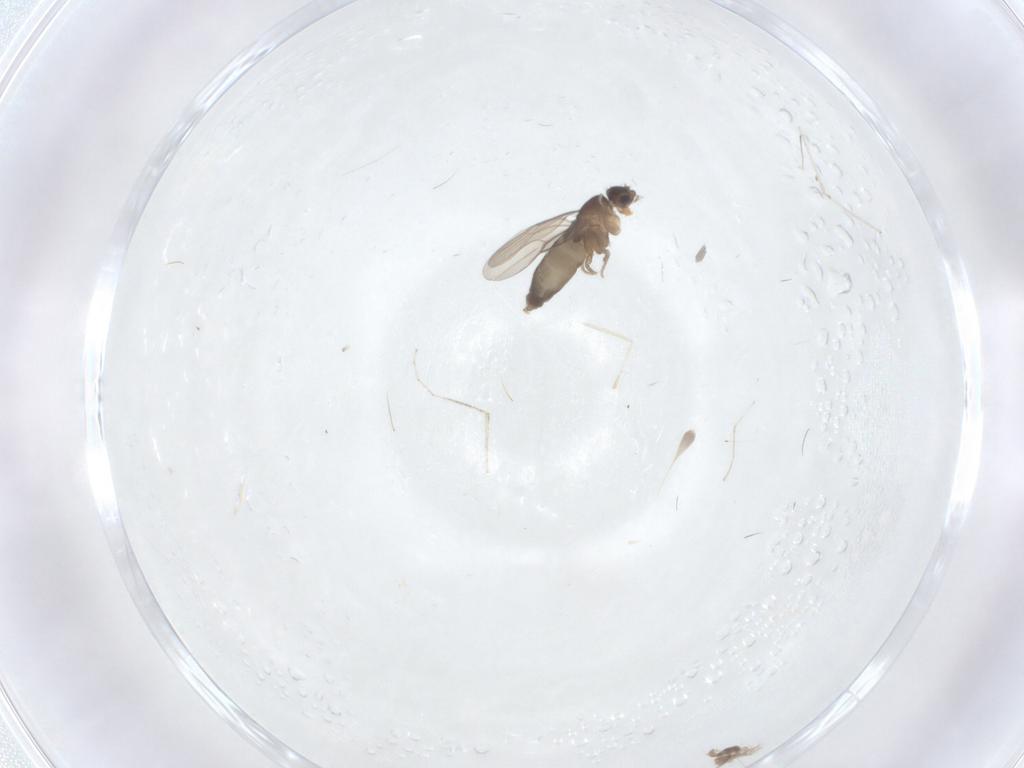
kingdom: Animalia
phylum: Arthropoda
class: Insecta
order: Diptera
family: Phoridae
